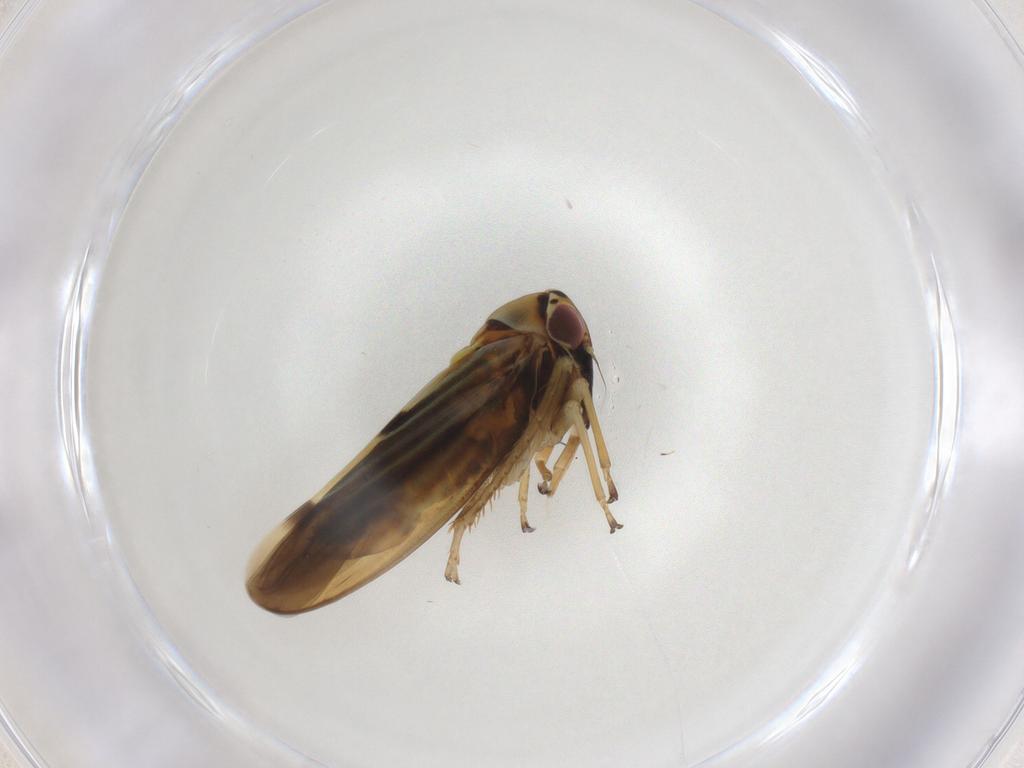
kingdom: Animalia
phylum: Arthropoda
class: Insecta
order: Hemiptera
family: Cicadellidae
